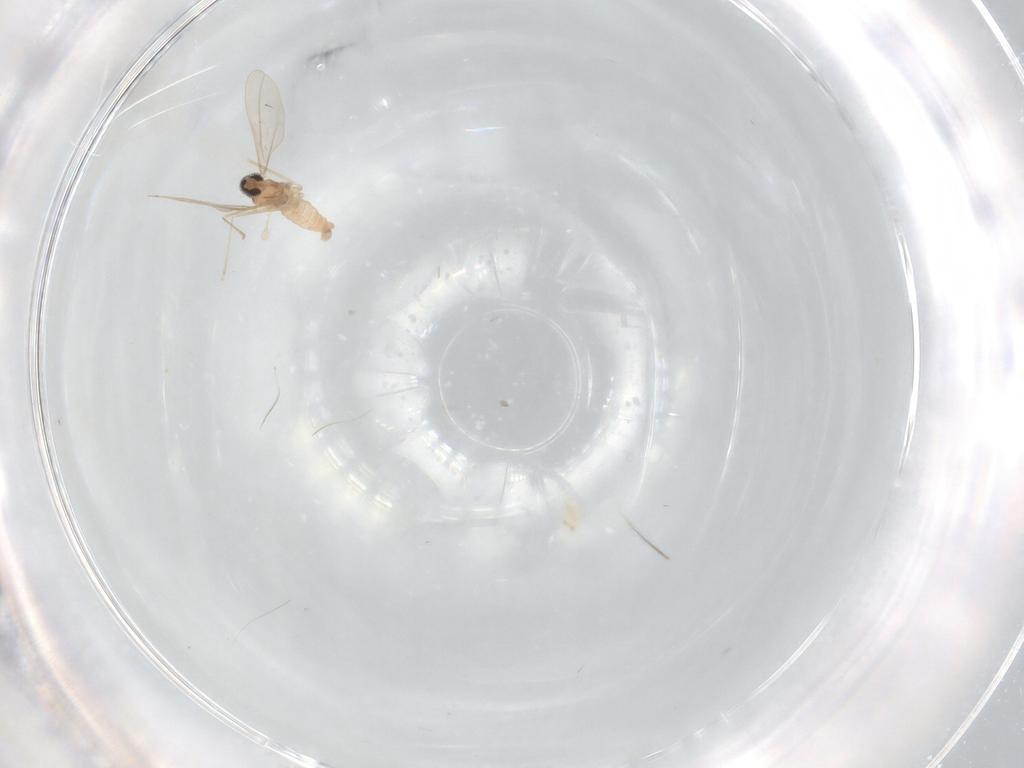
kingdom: Animalia
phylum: Arthropoda
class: Insecta
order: Diptera
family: Cecidomyiidae
